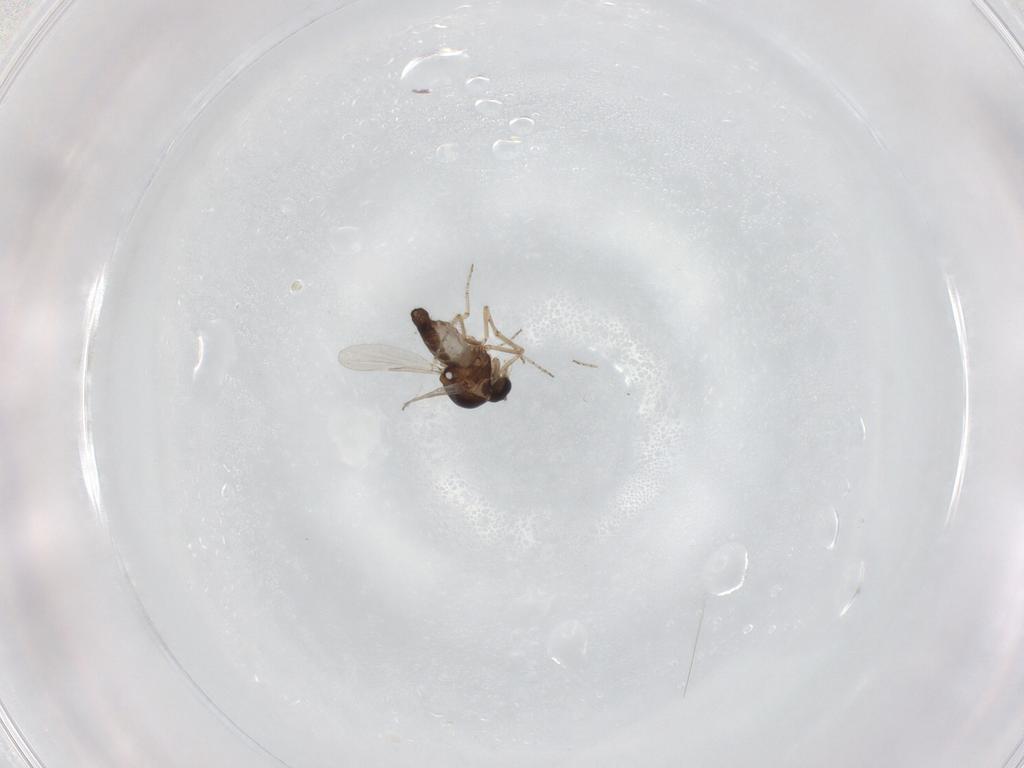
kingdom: Animalia
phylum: Arthropoda
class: Insecta
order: Diptera
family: Ceratopogonidae
